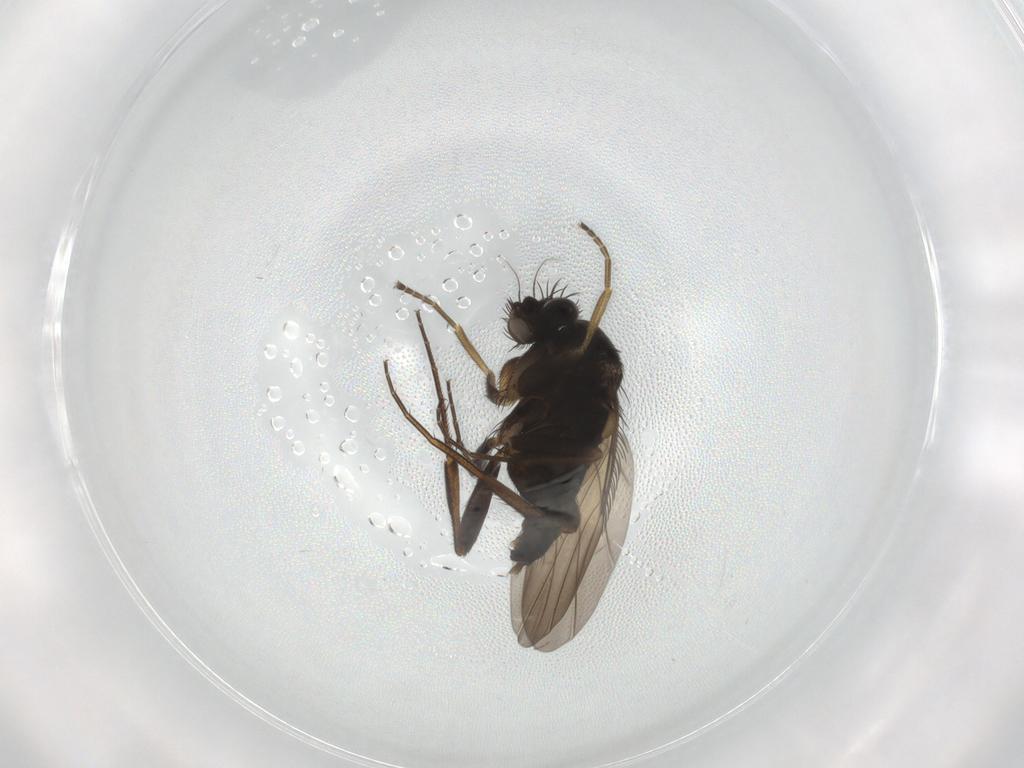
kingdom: Animalia
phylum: Arthropoda
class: Insecta
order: Diptera
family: Phoridae
